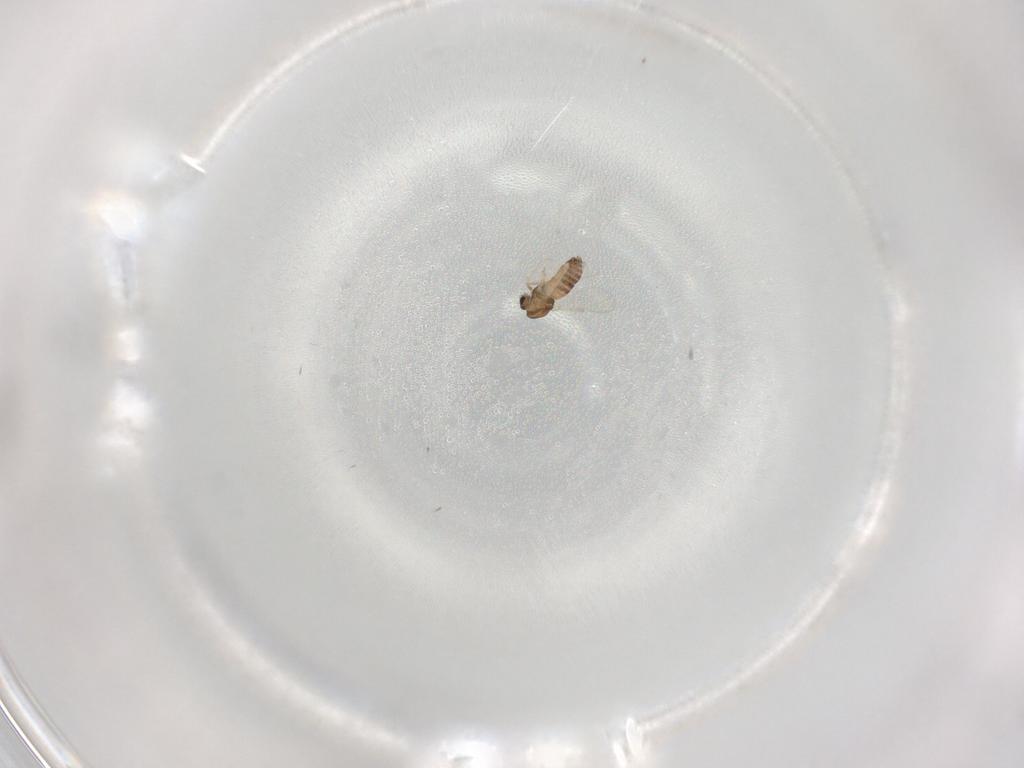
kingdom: Animalia
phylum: Arthropoda
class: Insecta
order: Diptera
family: Chironomidae
